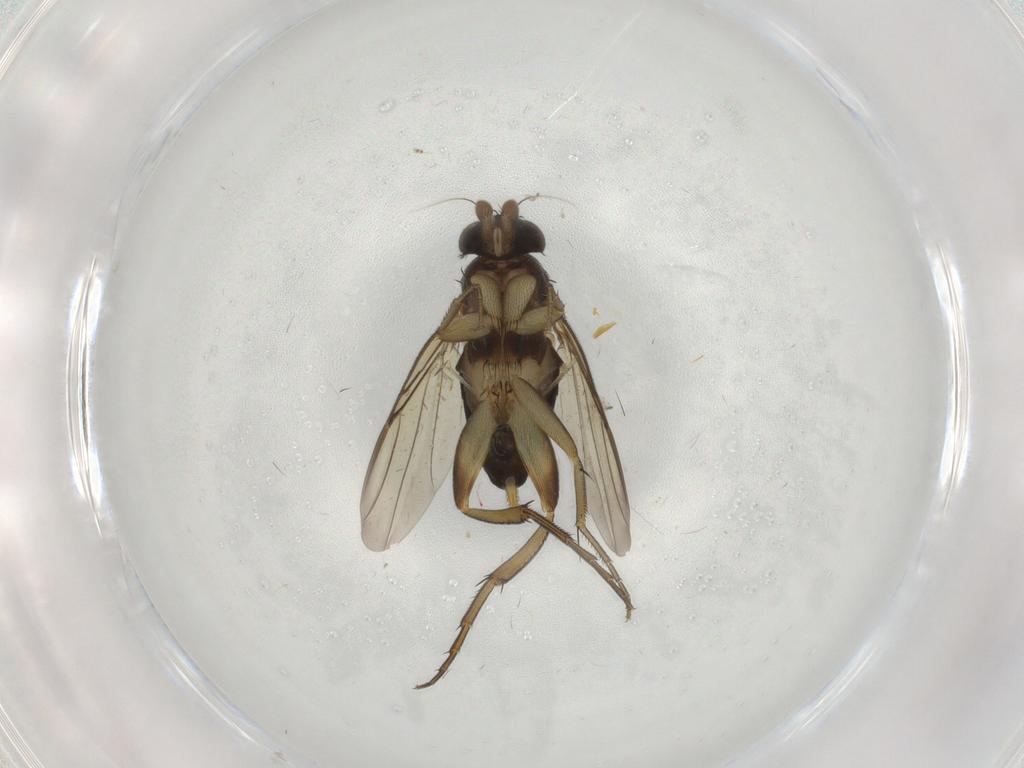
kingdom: Animalia
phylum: Arthropoda
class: Insecta
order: Diptera
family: Phoridae
